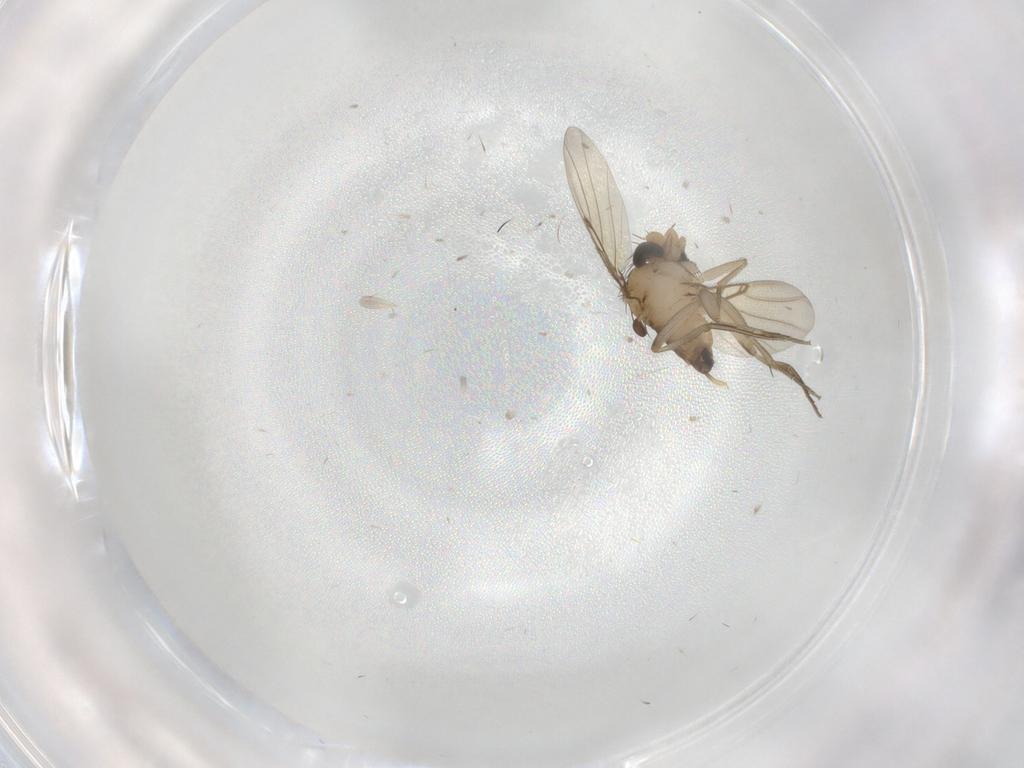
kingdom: Animalia
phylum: Arthropoda
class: Insecta
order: Diptera
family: Phoridae
